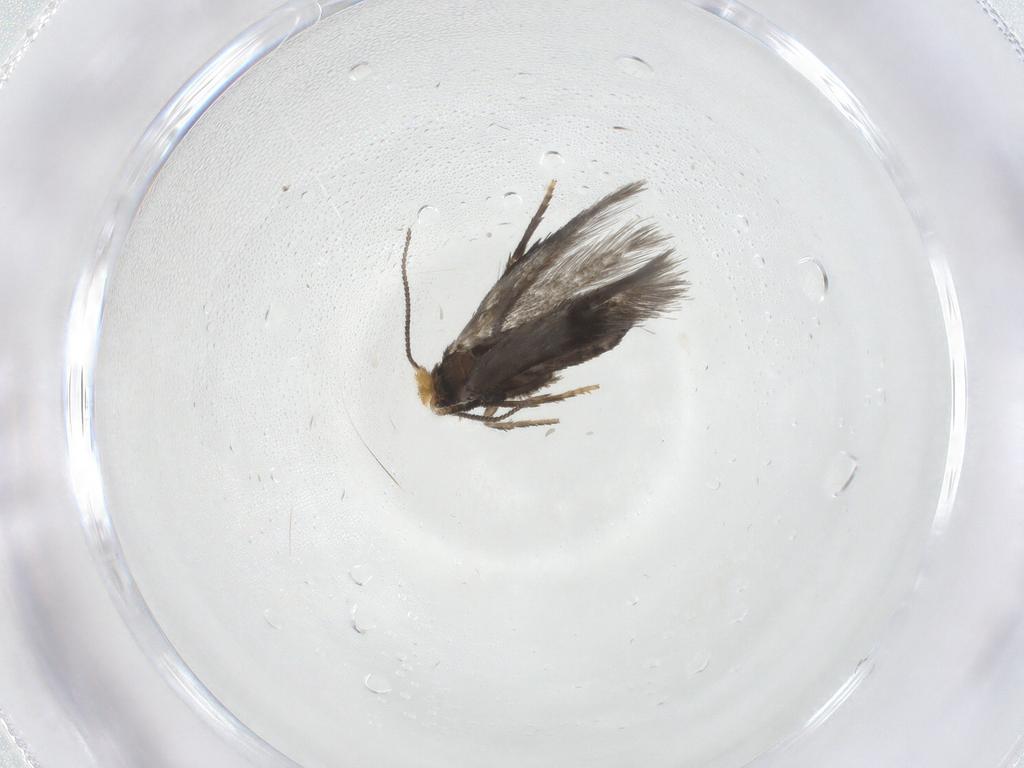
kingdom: Animalia
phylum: Arthropoda
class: Insecta
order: Lepidoptera
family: Nepticulidae
